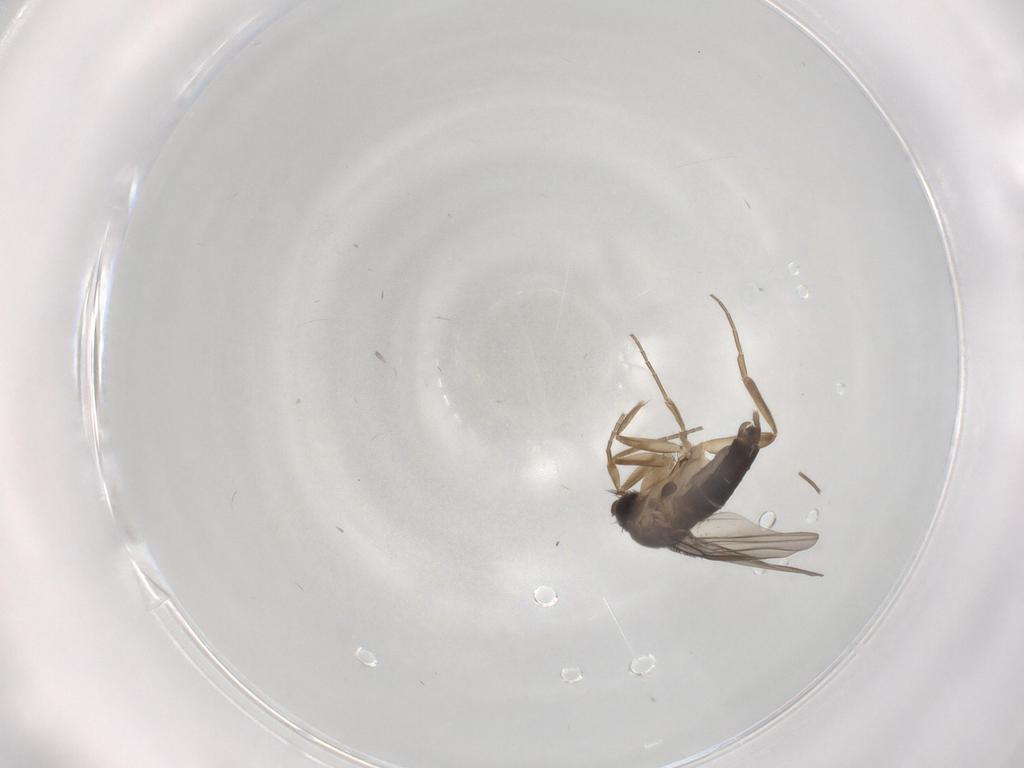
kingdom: Animalia
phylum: Arthropoda
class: Insecta
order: Diptera
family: Phoridae
